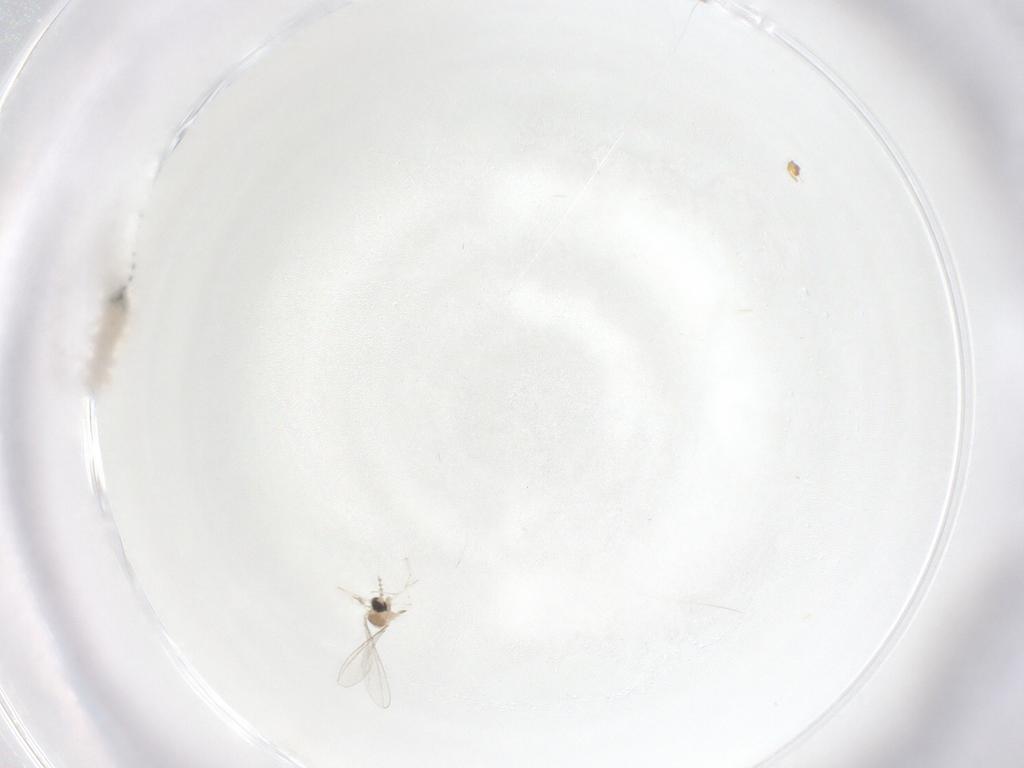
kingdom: Animalia
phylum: Arthropoda
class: Insecta
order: Diptera
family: Cecidomyiidae
